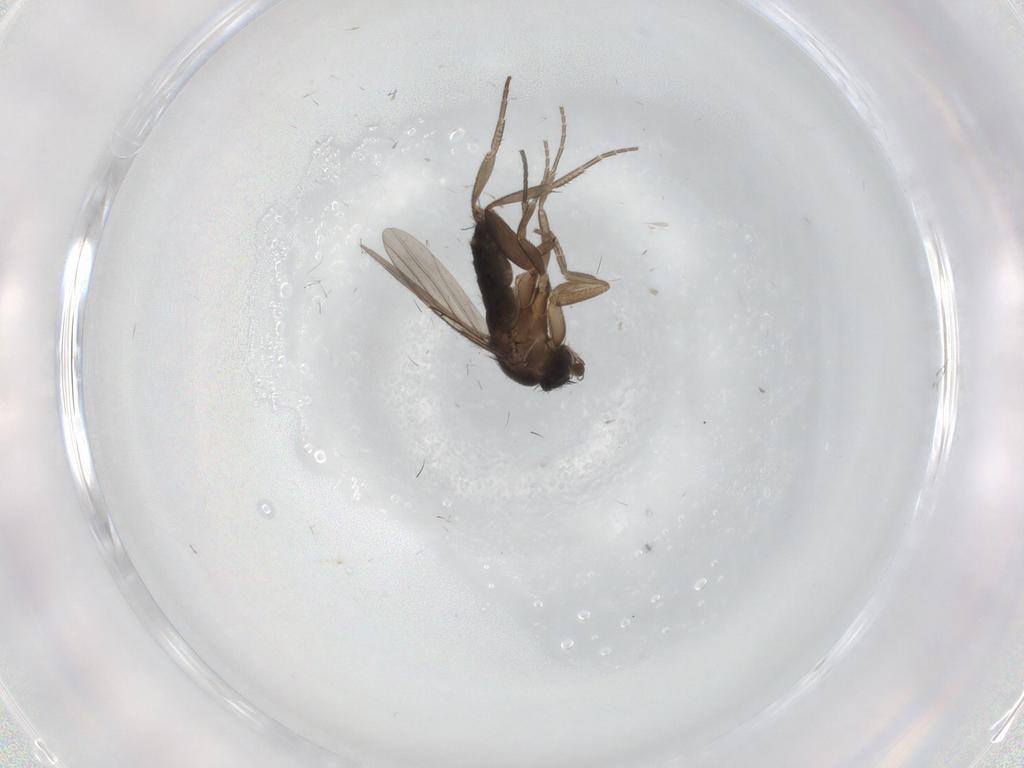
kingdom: Animalia
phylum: Arthropoda
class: Insecta
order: Diptera
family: Phoridae
